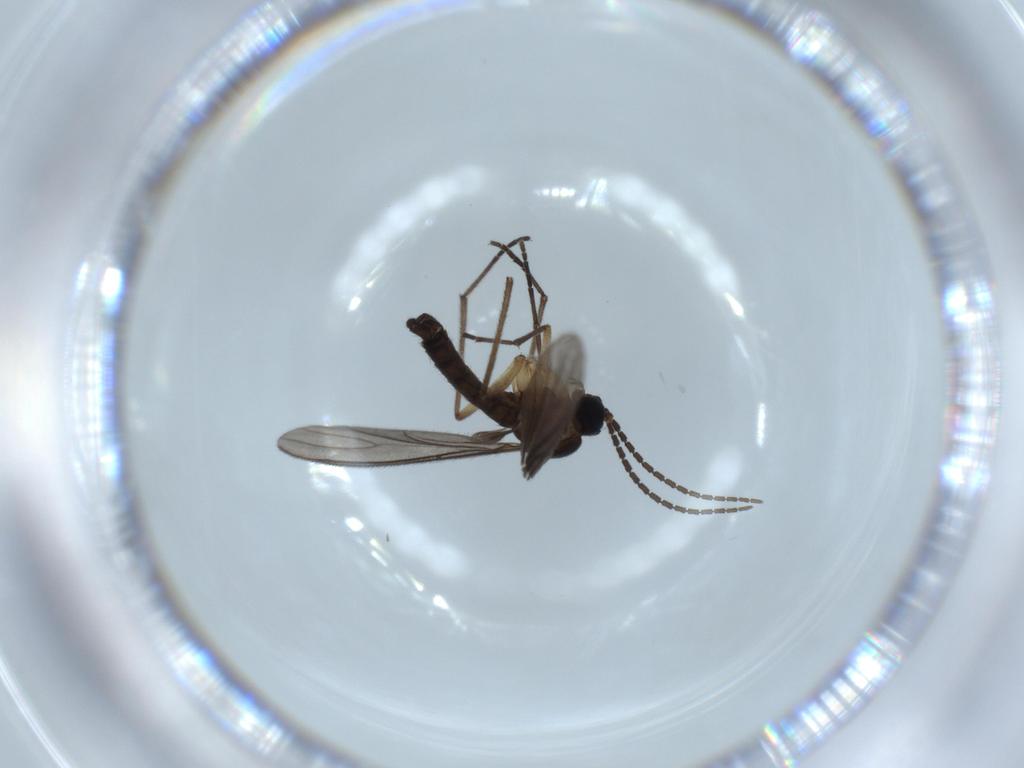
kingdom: Animalia
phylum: Arthropoda
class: Insecta
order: Diptera
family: Sciaridae
